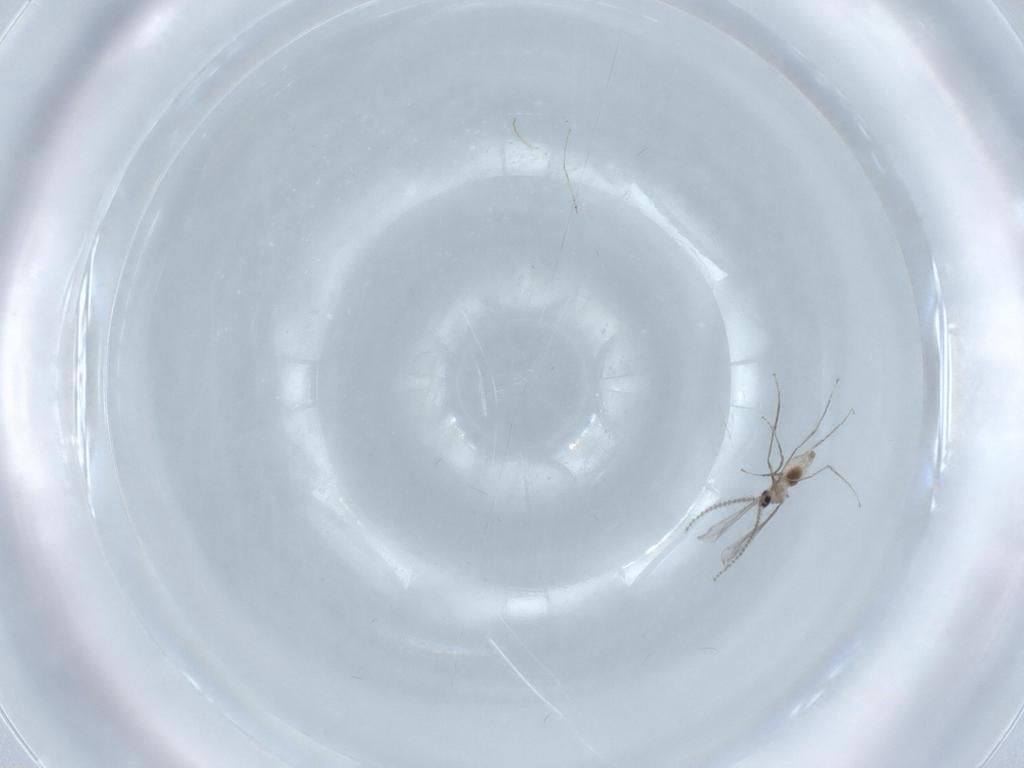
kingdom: Animalia
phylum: Arthropoda
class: Insecta
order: Diptera
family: Cecidomyiidae
